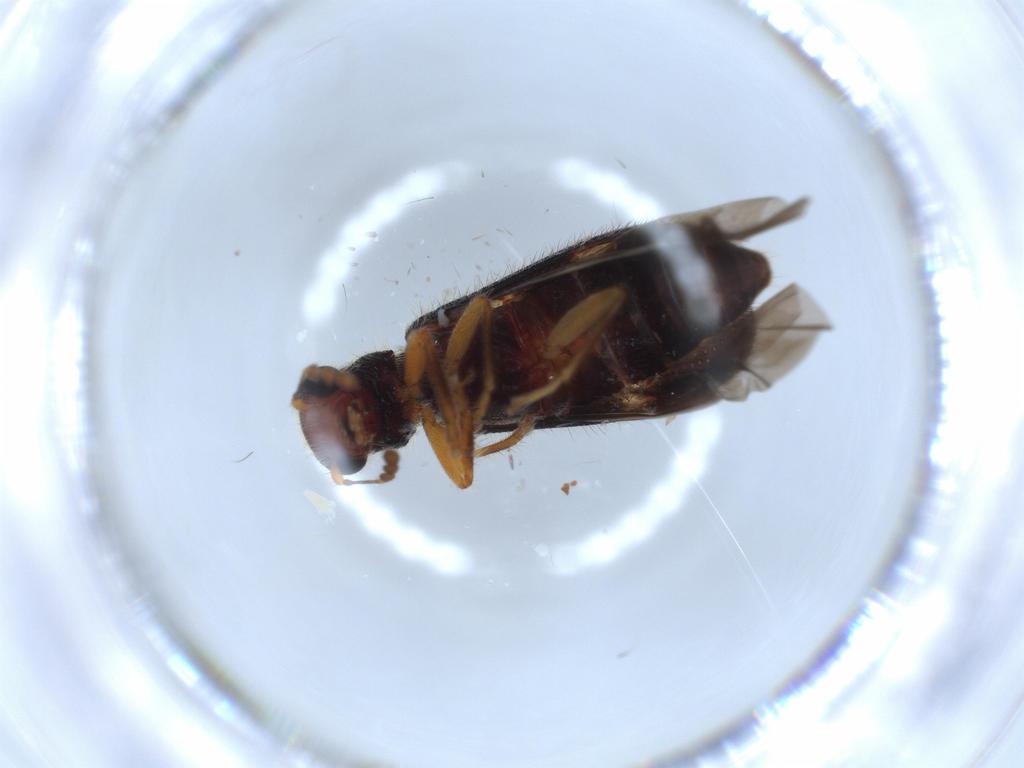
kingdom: Animalia
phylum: Arthropoda
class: Insecta
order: Coleoptera
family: Cleridae
